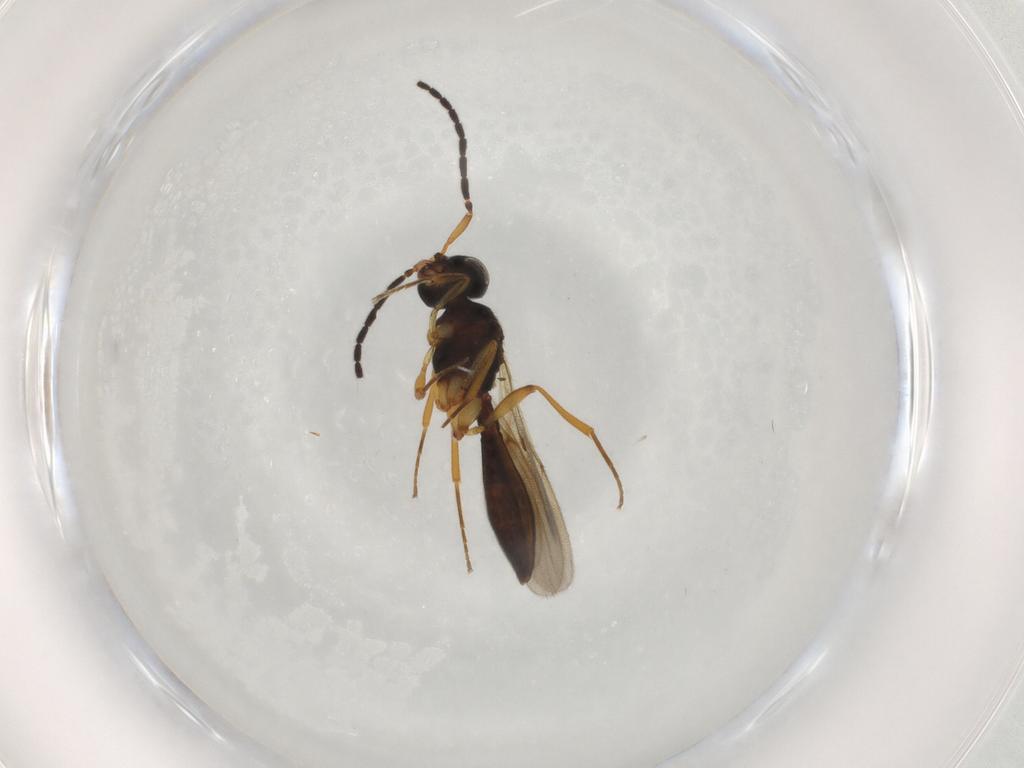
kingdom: Animalia
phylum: Arthropoda
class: Insecta
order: Hymenoptera
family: Scelionidae
